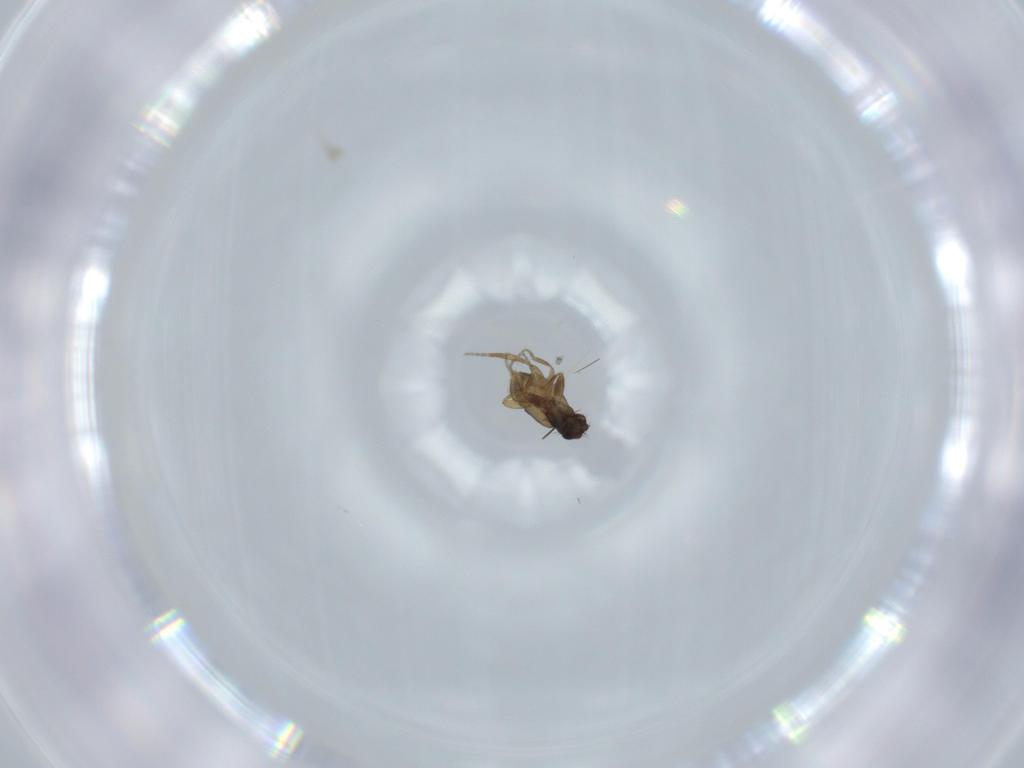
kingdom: Animalia
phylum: Arthropoda
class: Insecta
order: Diptera
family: Phoridae
